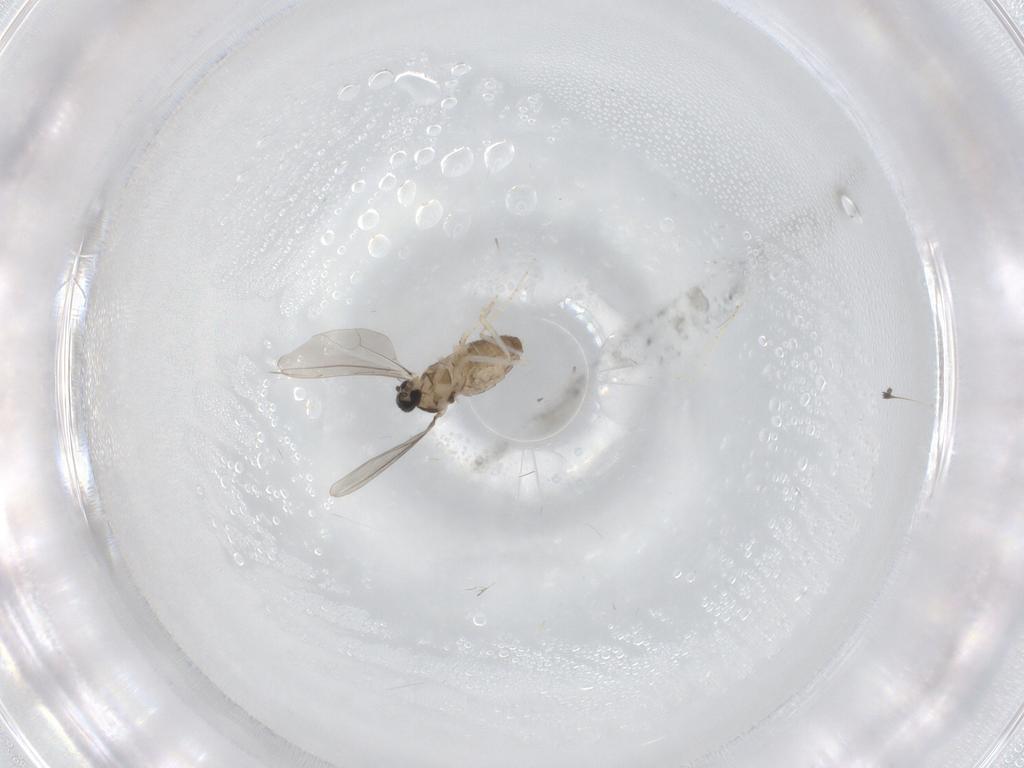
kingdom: Animalia
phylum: Arthropoda
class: Insecta
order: Diptera
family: Cecidomyiidae
